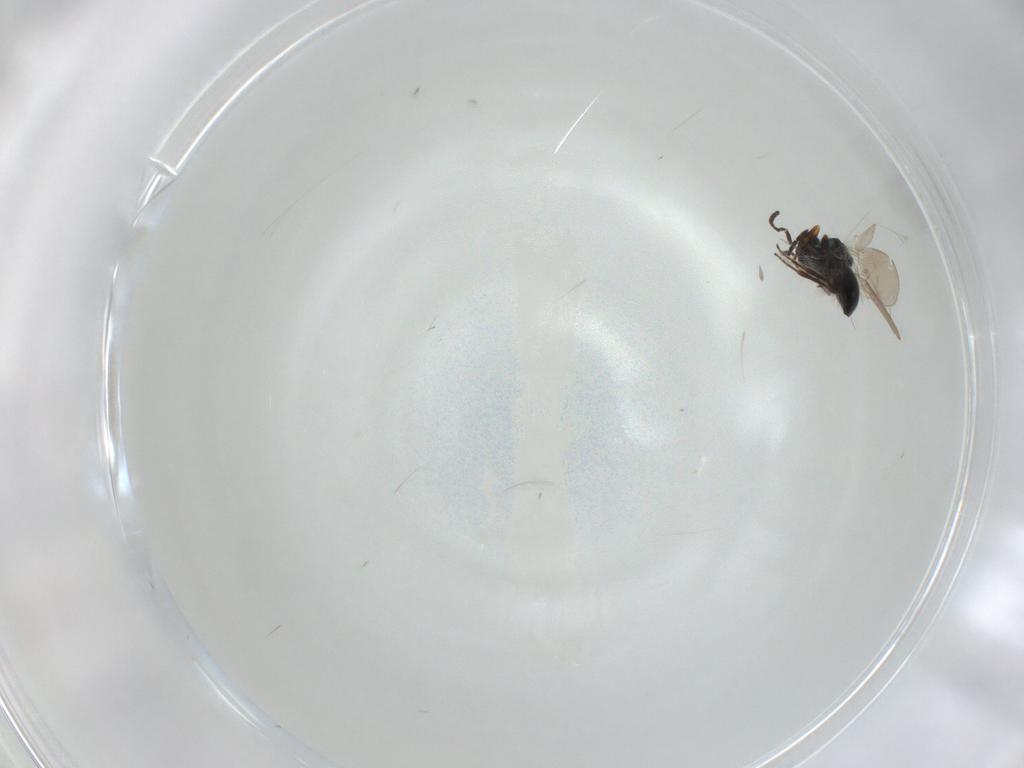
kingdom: Animalia
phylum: Arthropoda
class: Insecta
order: Hymenoptera
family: Platygastridae
